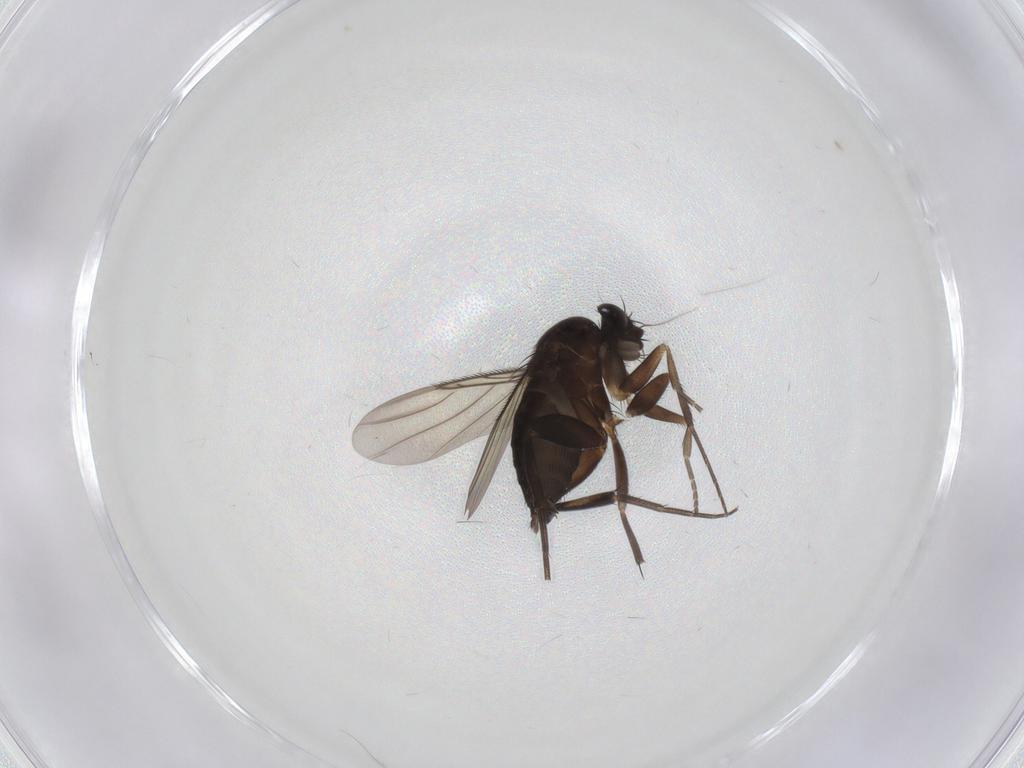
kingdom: Animalia
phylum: Arthropoda
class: Insecta
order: Diptera
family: Phoridae
